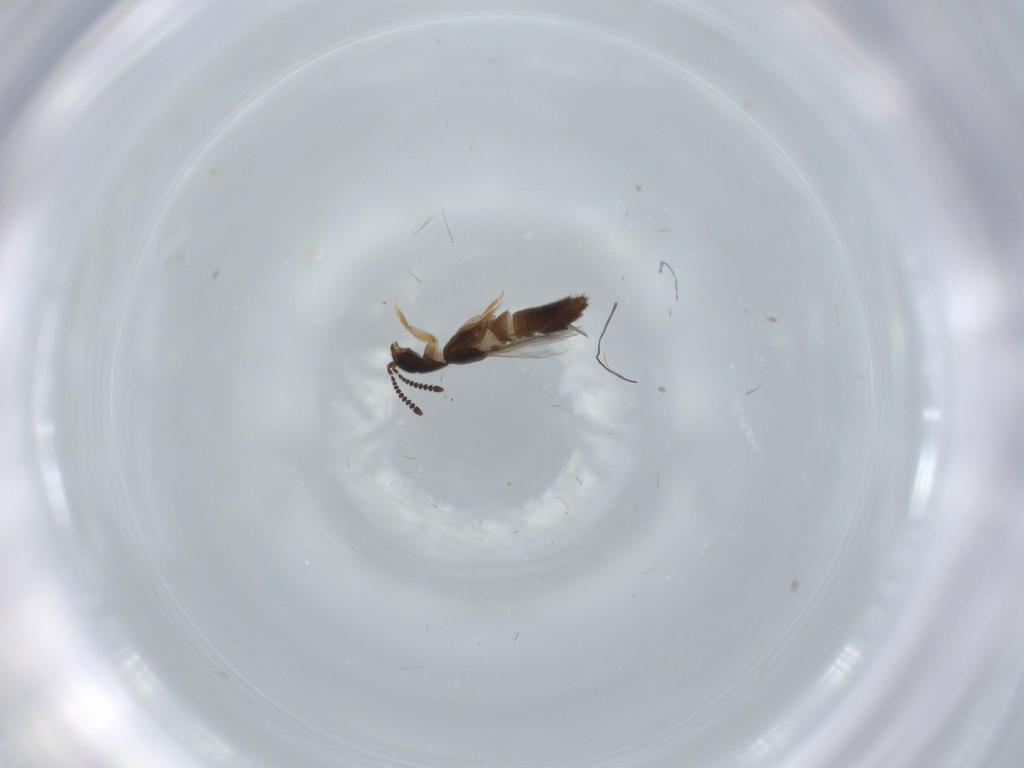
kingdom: Animalia
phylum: Arthropoda
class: Insecta
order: Coleoptera
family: Staphylinidae
